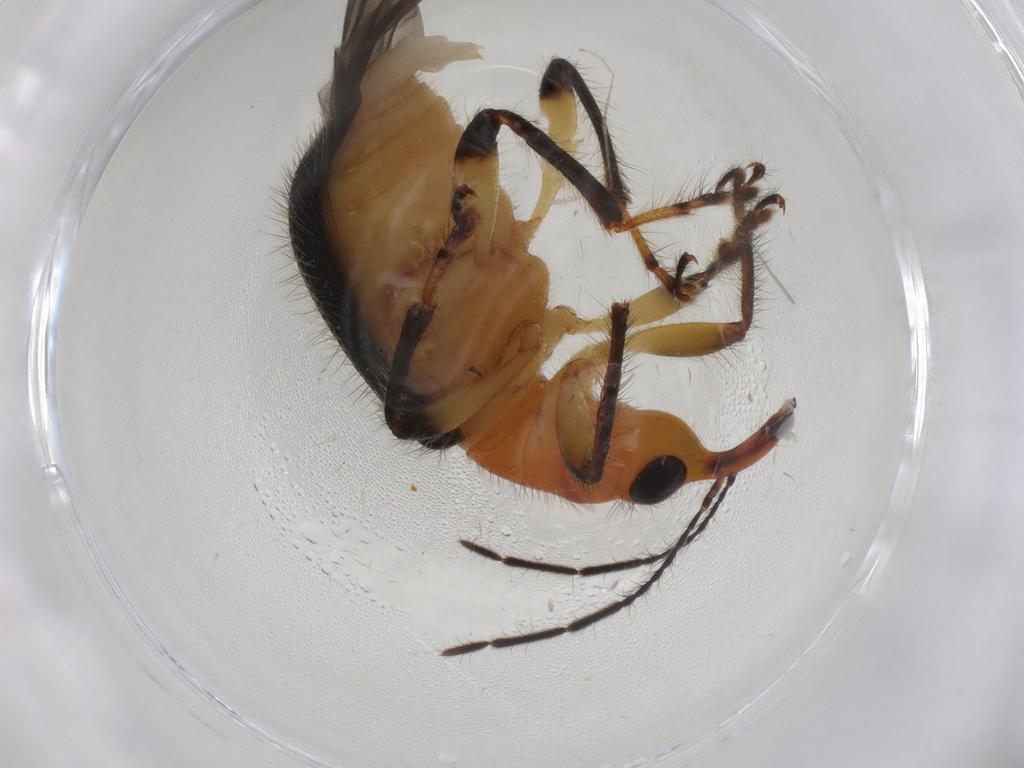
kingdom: Animalia
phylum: Arthropoda
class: Insecta
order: Coleoptera
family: Attelabidae
